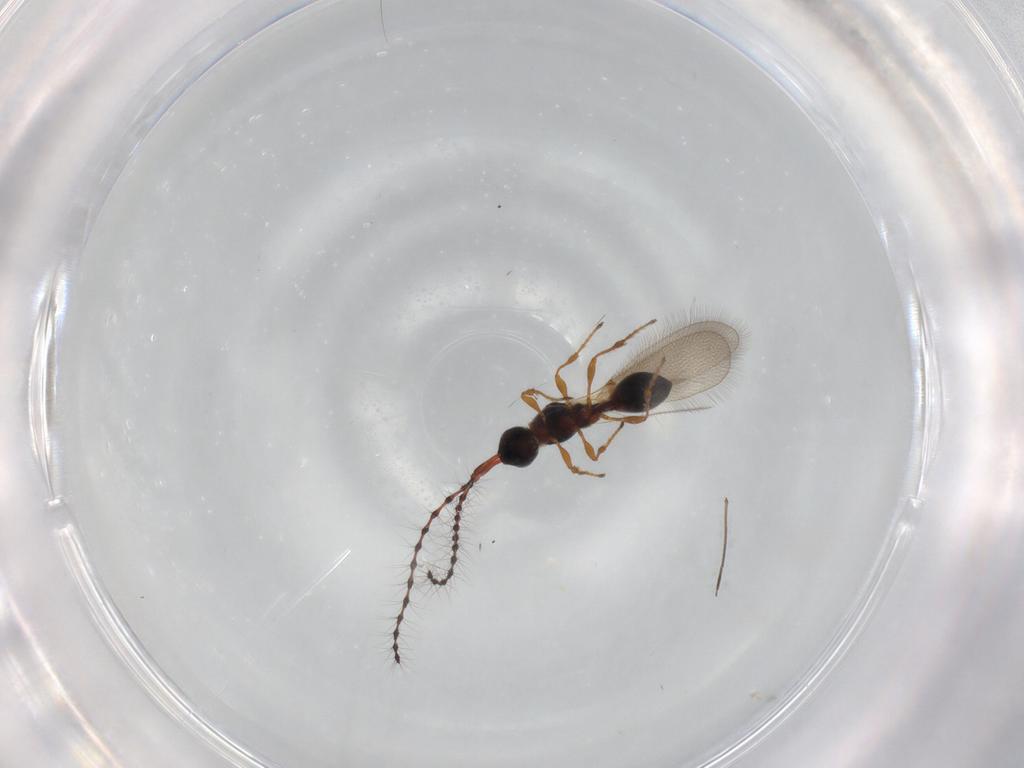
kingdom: Animalia
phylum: Arthropoda
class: Insecta
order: Hymenoptera
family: Diapriidae
